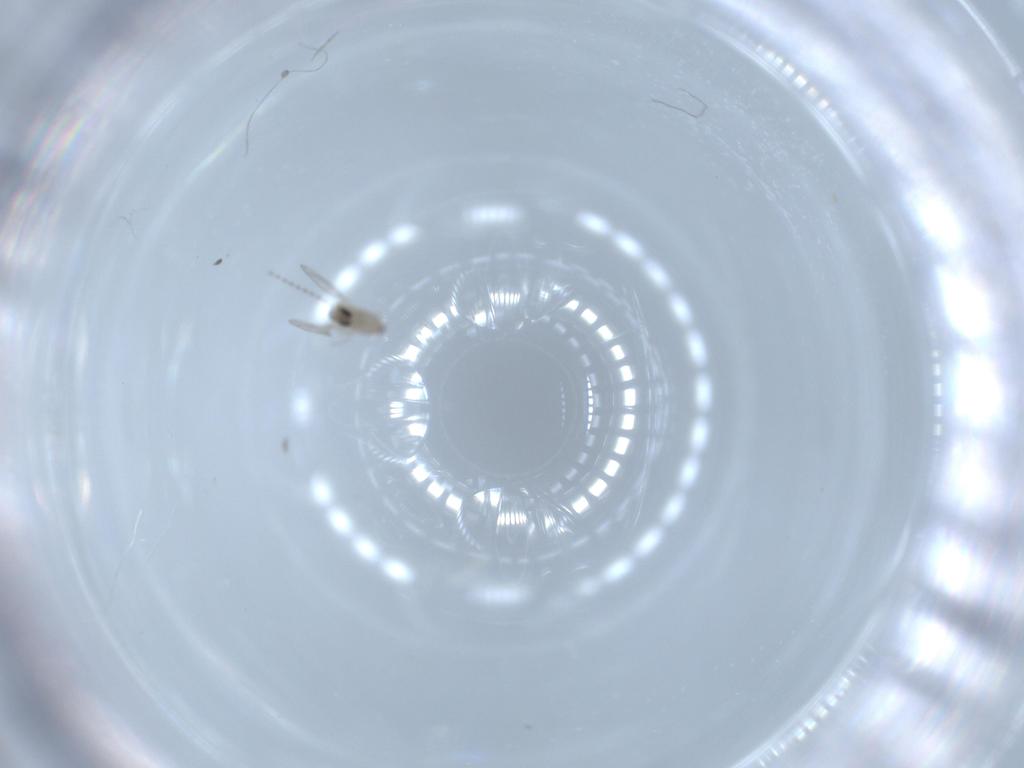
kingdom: Animalia
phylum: Arthropoda
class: Insecta
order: Diptera
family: Cecidomyiidae
